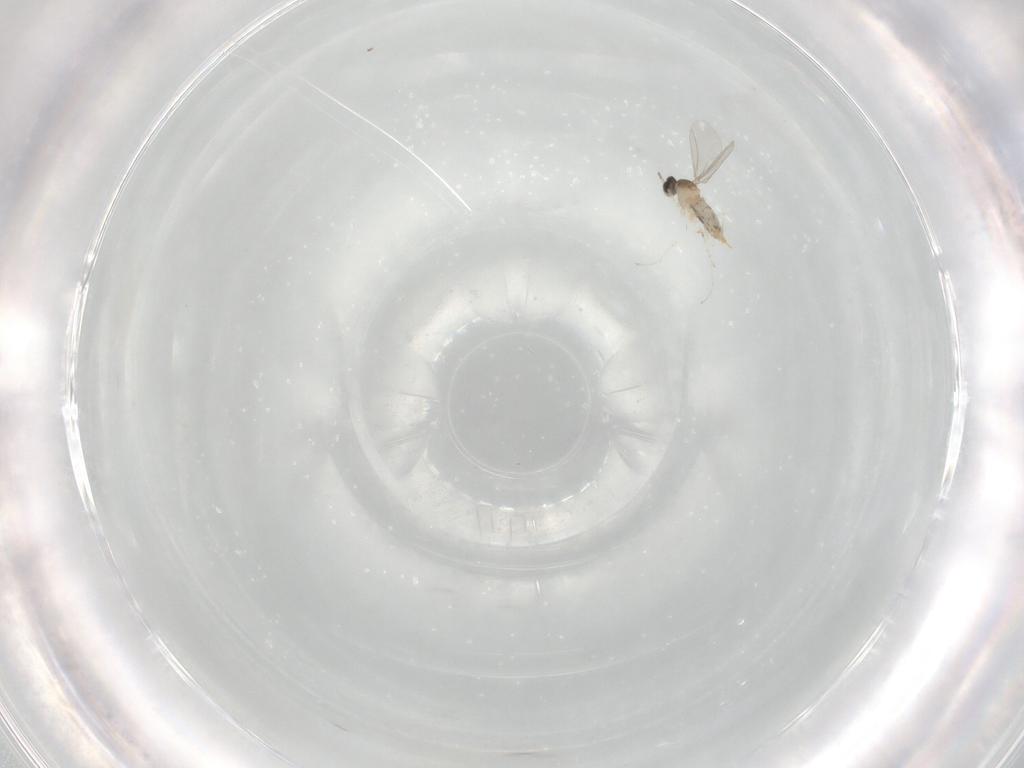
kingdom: Animalia
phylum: Arthropoda
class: Insecta
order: Diptera
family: Cecidomyiidae
